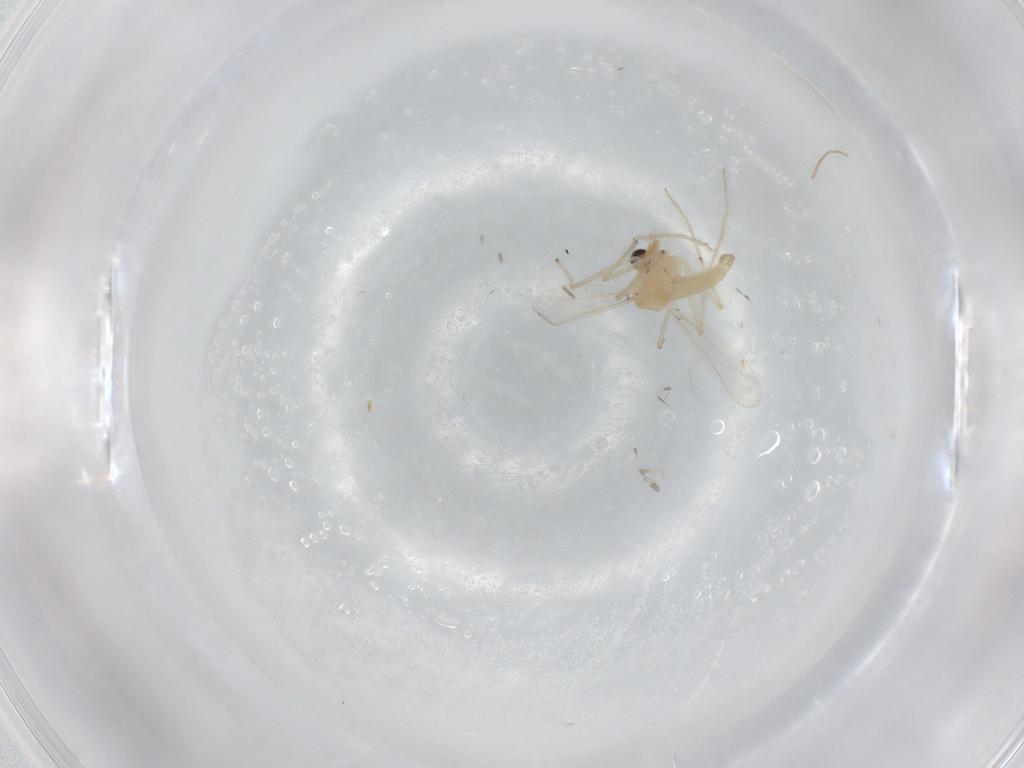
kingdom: Animalia
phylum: Arthropoda
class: Insecta
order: Diptera
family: Chironomidae
